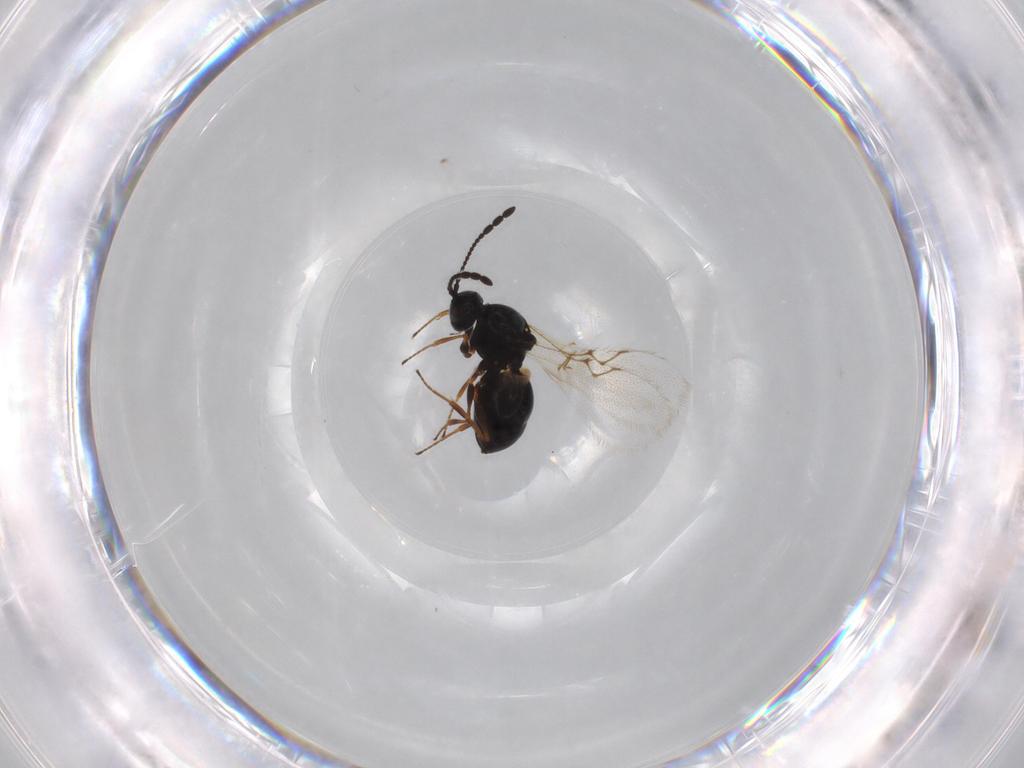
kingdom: Animalia
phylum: Arthropoda
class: Insecta
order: Hymenoptera
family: Figitidae
